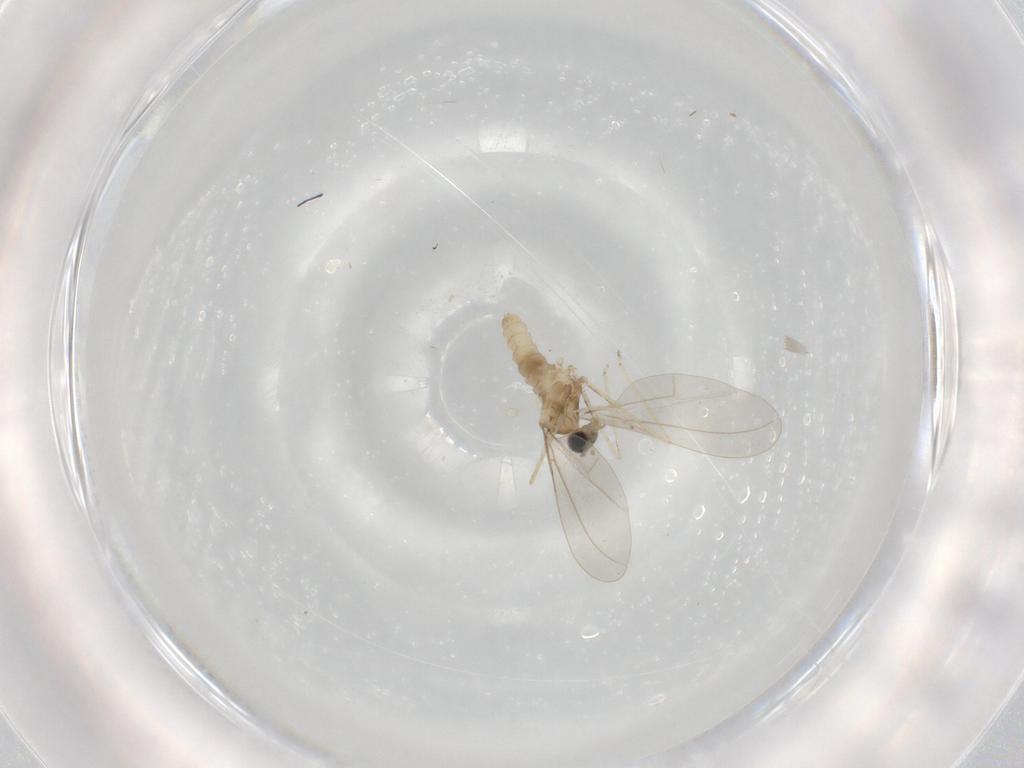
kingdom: Animalia
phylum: Arthropoda
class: Insecta
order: Diptera
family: Cecidomyiidae
